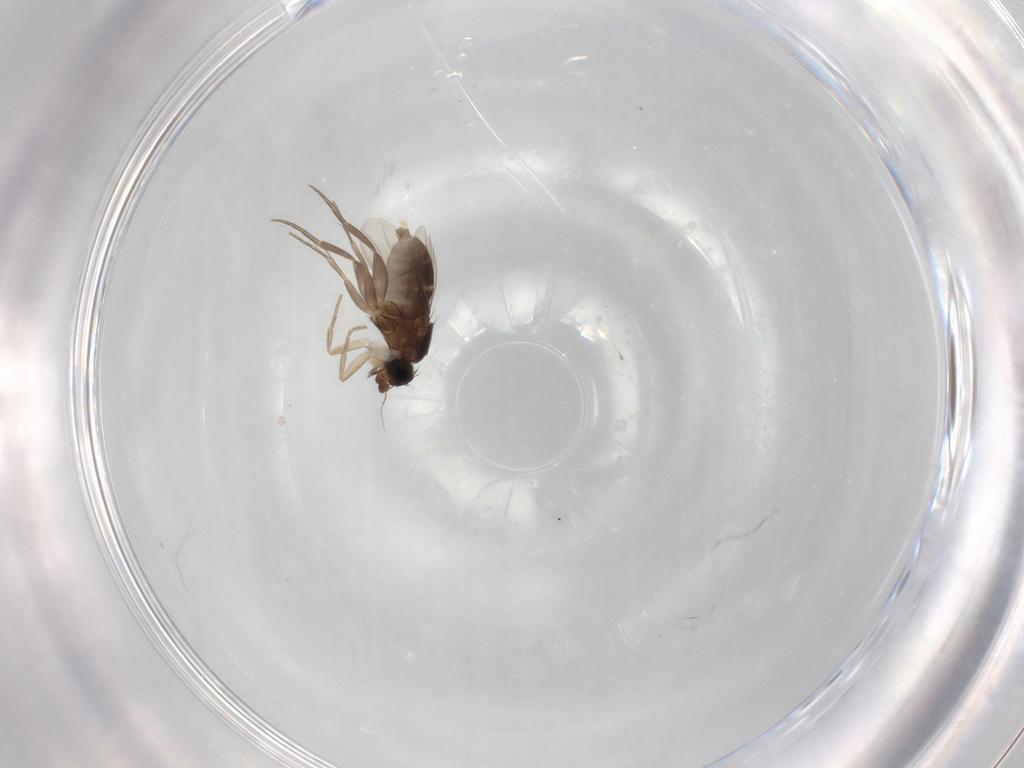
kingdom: Animalia
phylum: Arthropoda
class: Insecta
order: Diptera
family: Phoridae
